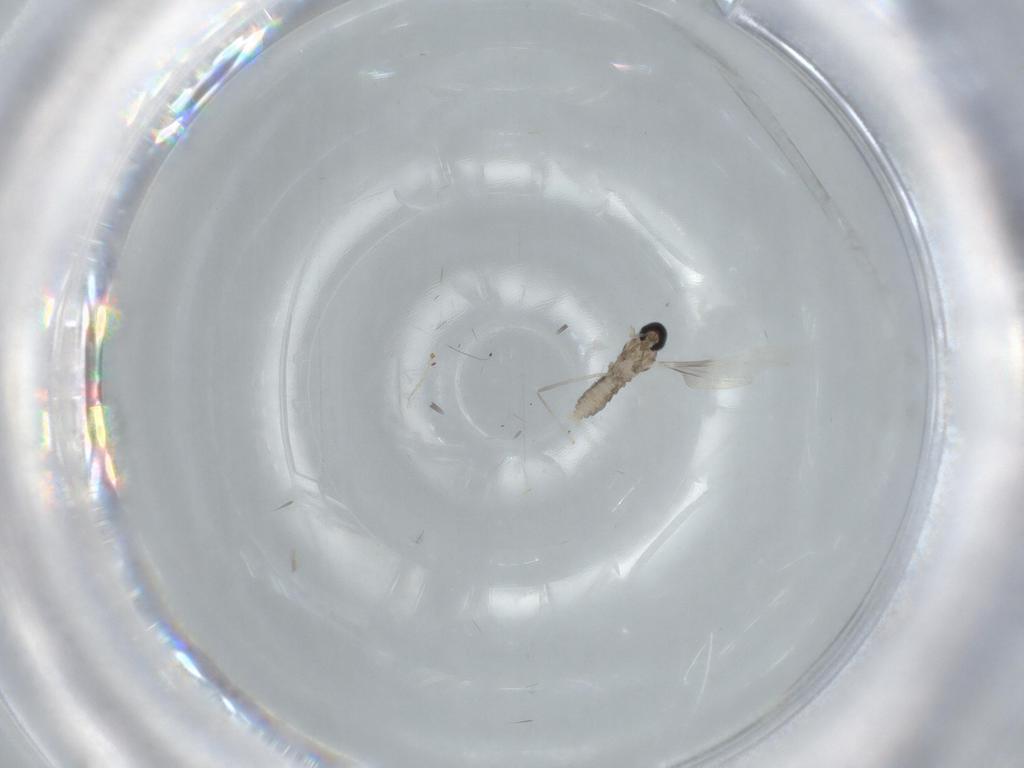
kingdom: Animalia
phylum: Arthropoda
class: Insecta
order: Diptera
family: Cecidomyiidae
